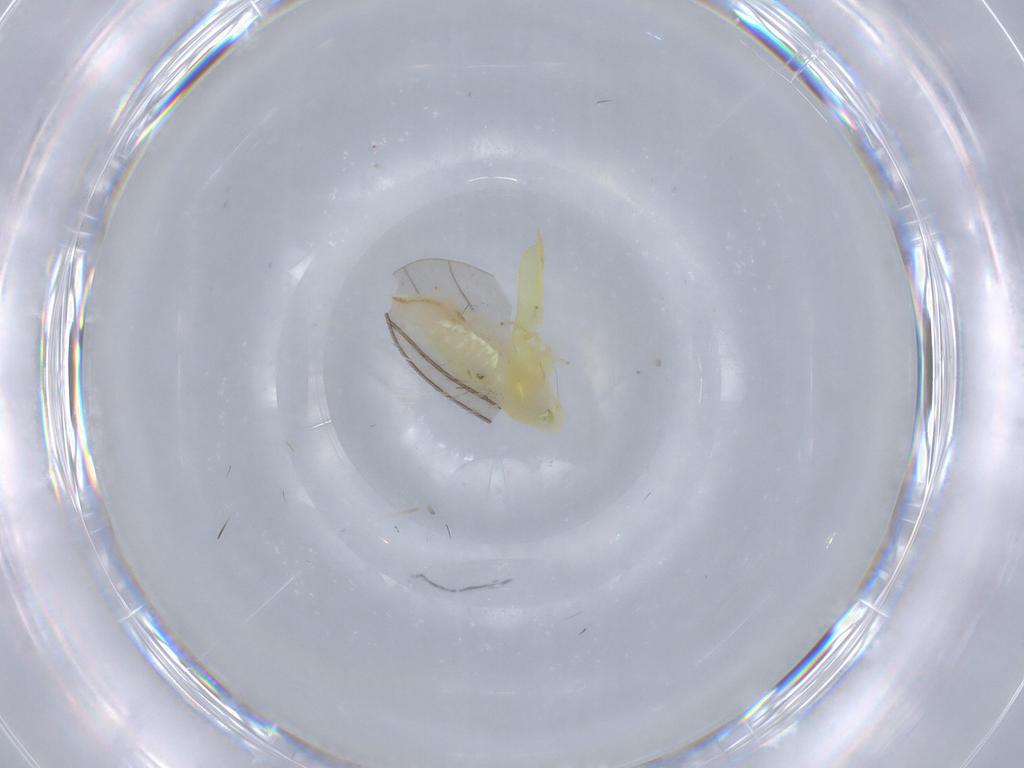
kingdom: Animalia
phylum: Arthropoda
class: Insecta
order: Hemiptera
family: Cicadellidae
